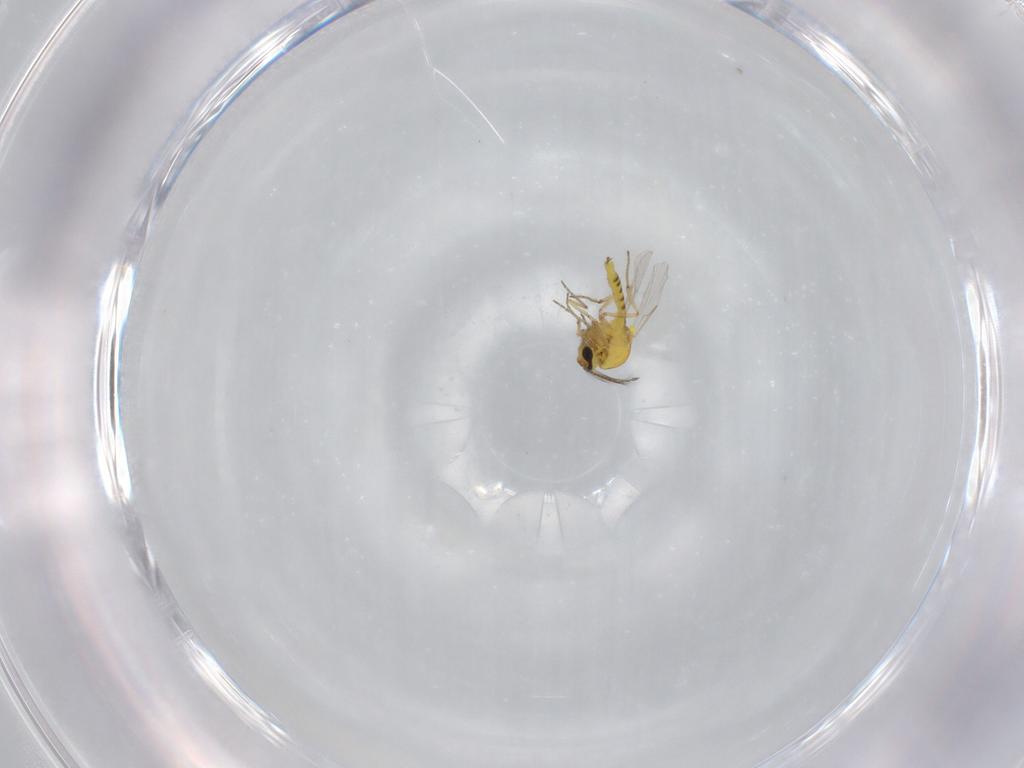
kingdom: Animalia
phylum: Arthropoda
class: Insecta
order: Diptera
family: Ceratopogonidae
